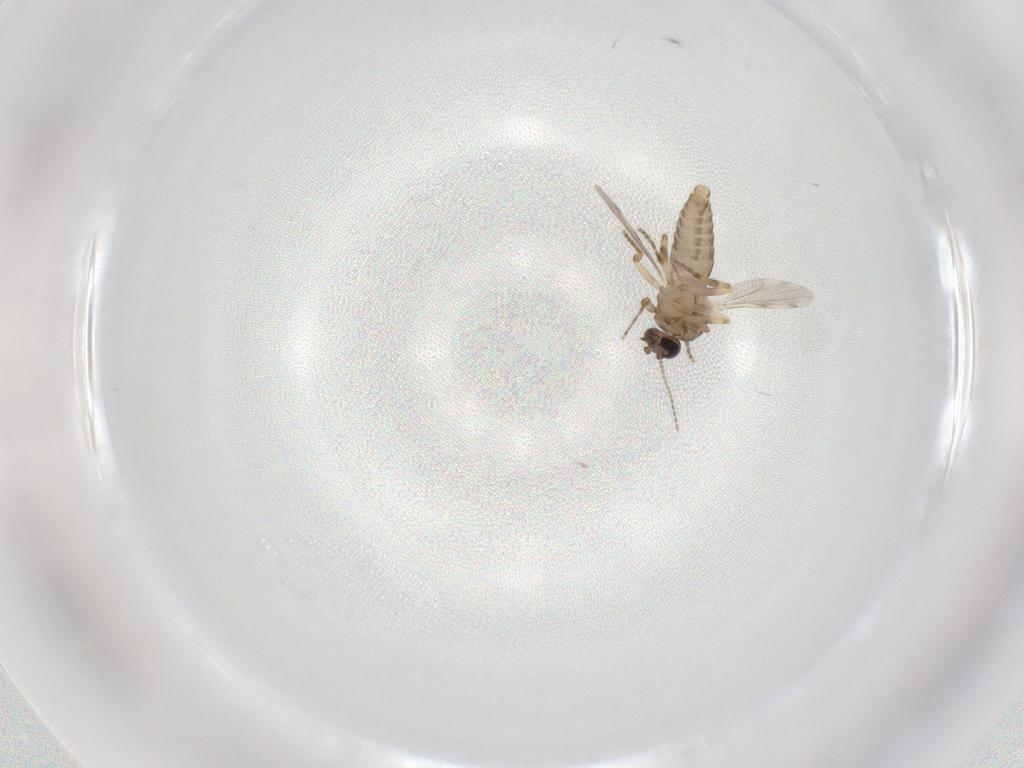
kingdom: Animalia
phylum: Arthropoda
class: Insecta
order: Diptera
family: Ceratopogonidae
